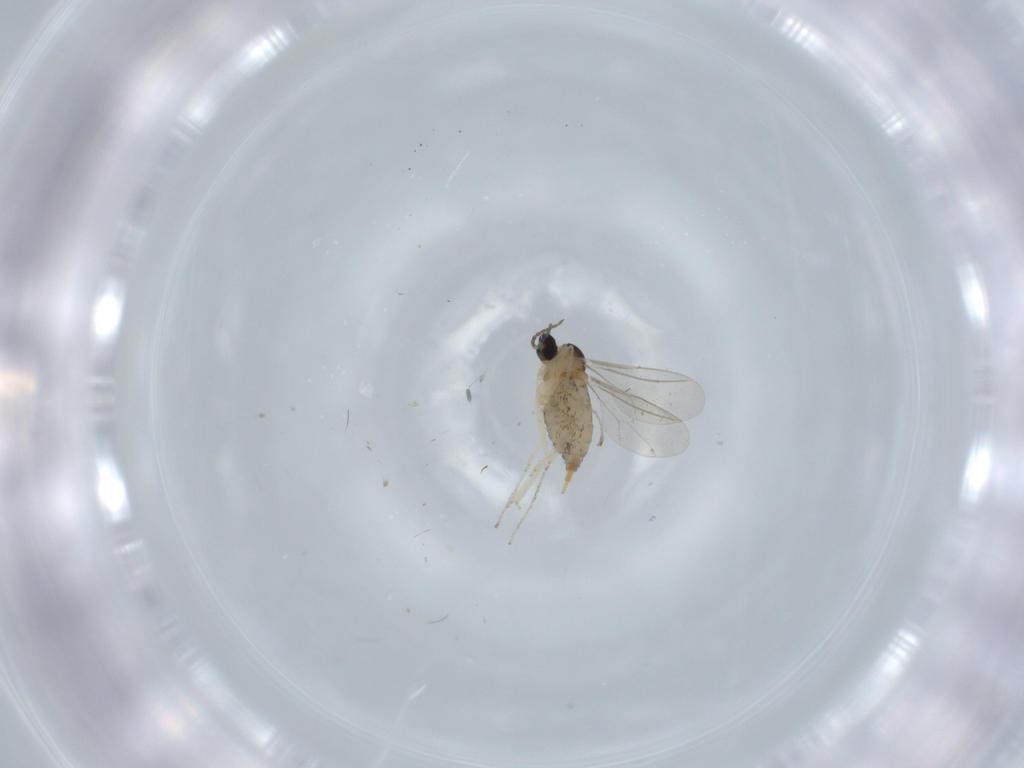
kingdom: Animalia
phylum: Arthropoda
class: Insecta
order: Diptera
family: Cecidomyiidae
